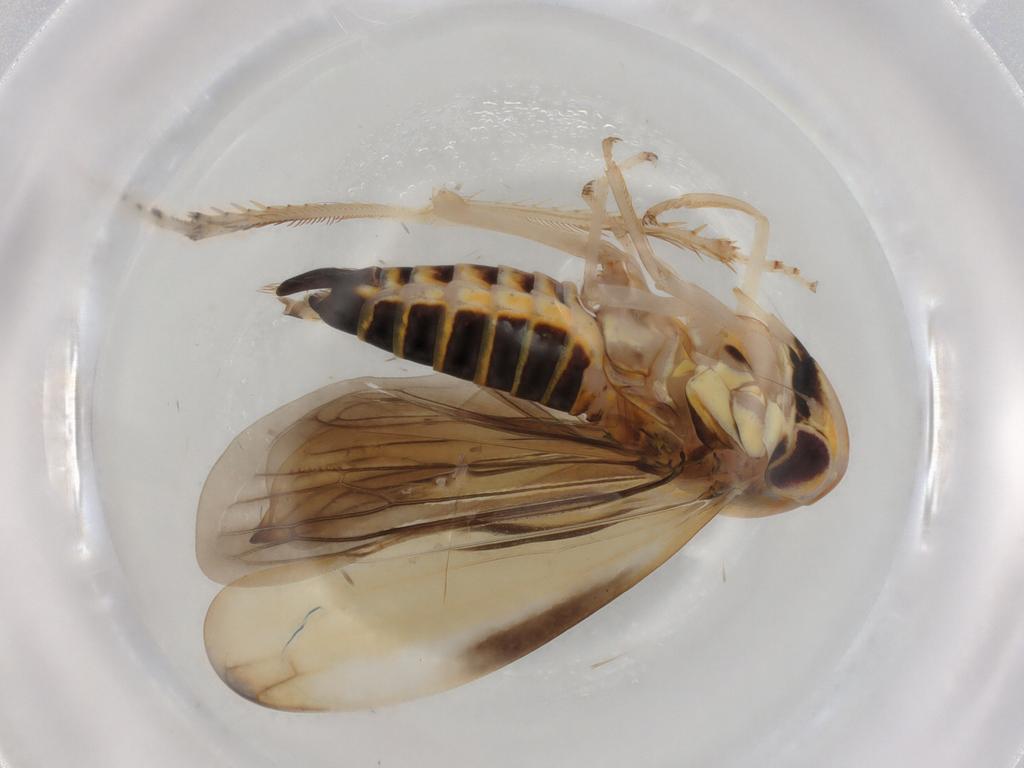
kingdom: Animalia
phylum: Arthropoda
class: Insecta
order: Hemiptera
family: Cicadellidae
